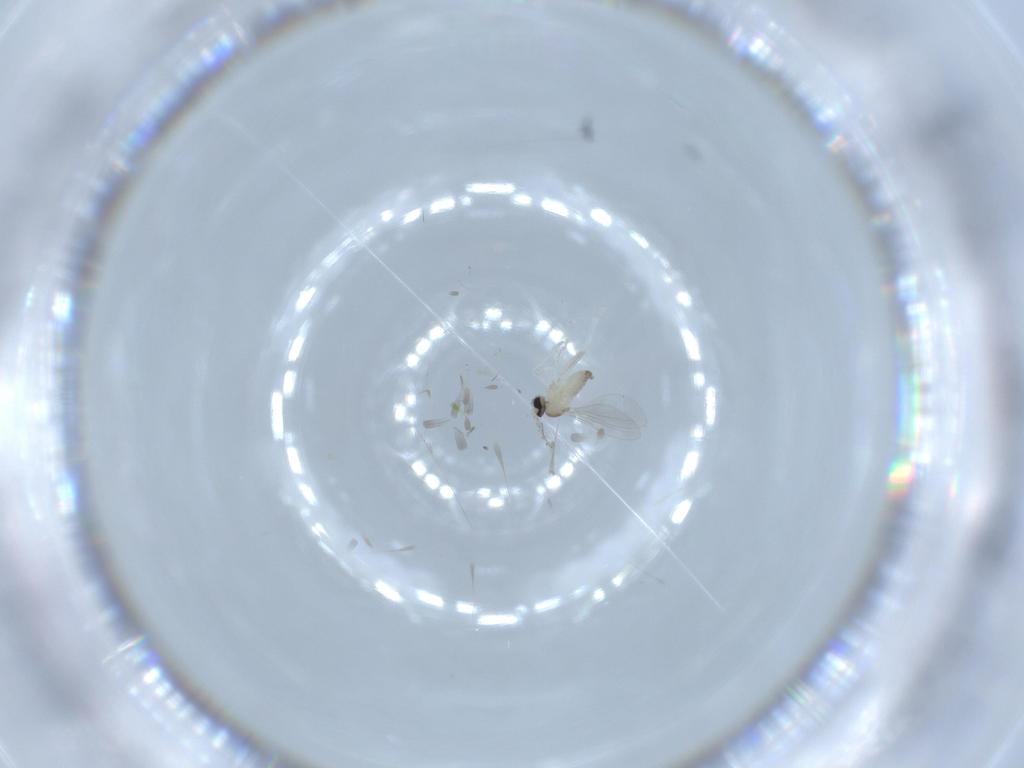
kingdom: Animalia
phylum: Arthropoda
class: Insecta
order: Diptera
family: Cecidomyiidae
